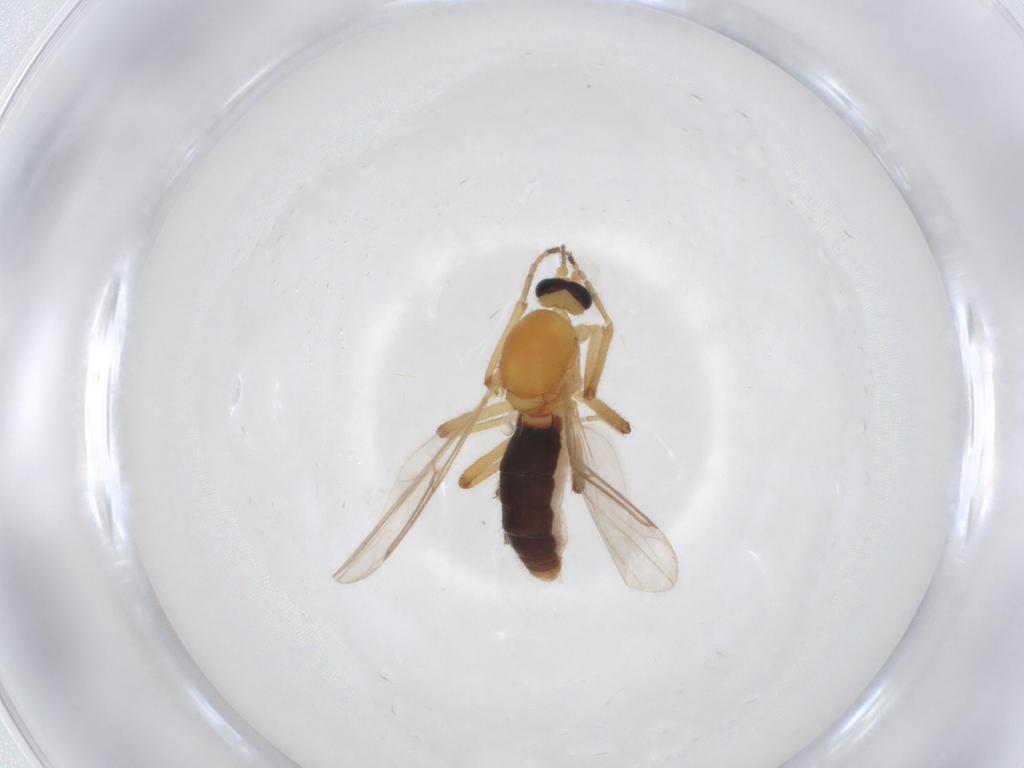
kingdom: Animalia
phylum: Arthropoda
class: Insecta
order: Diptera
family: Ceratopogonidae
